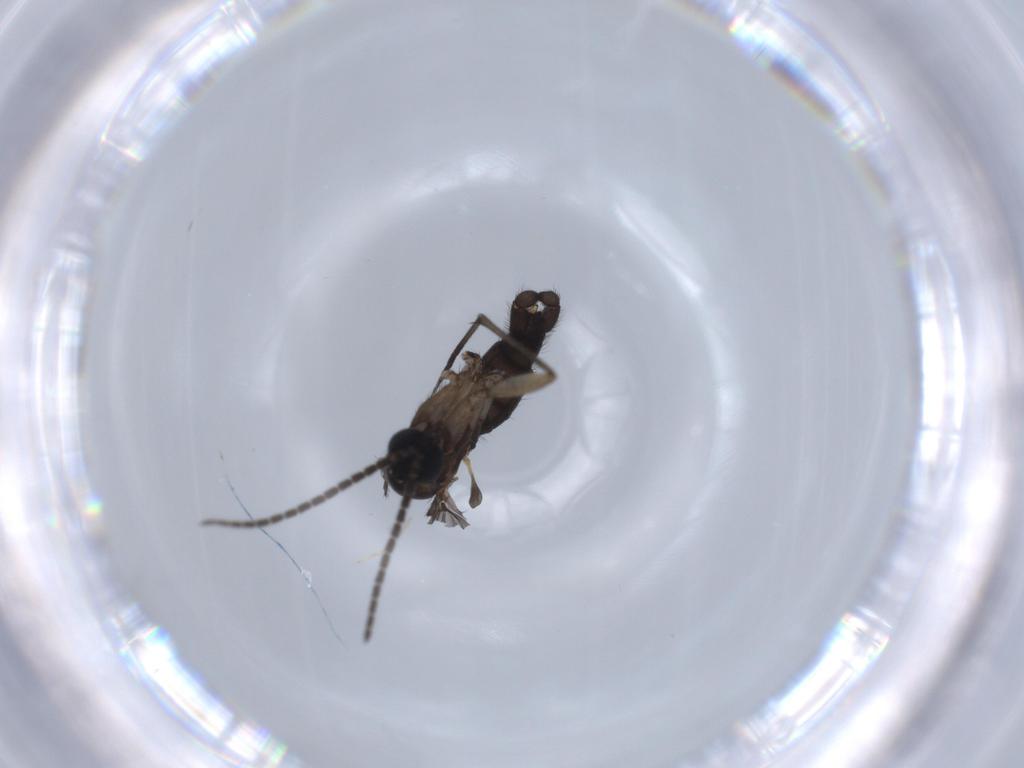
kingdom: Animalia
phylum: Arthropoda
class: Insecta
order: Diptera
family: Sciaridae
